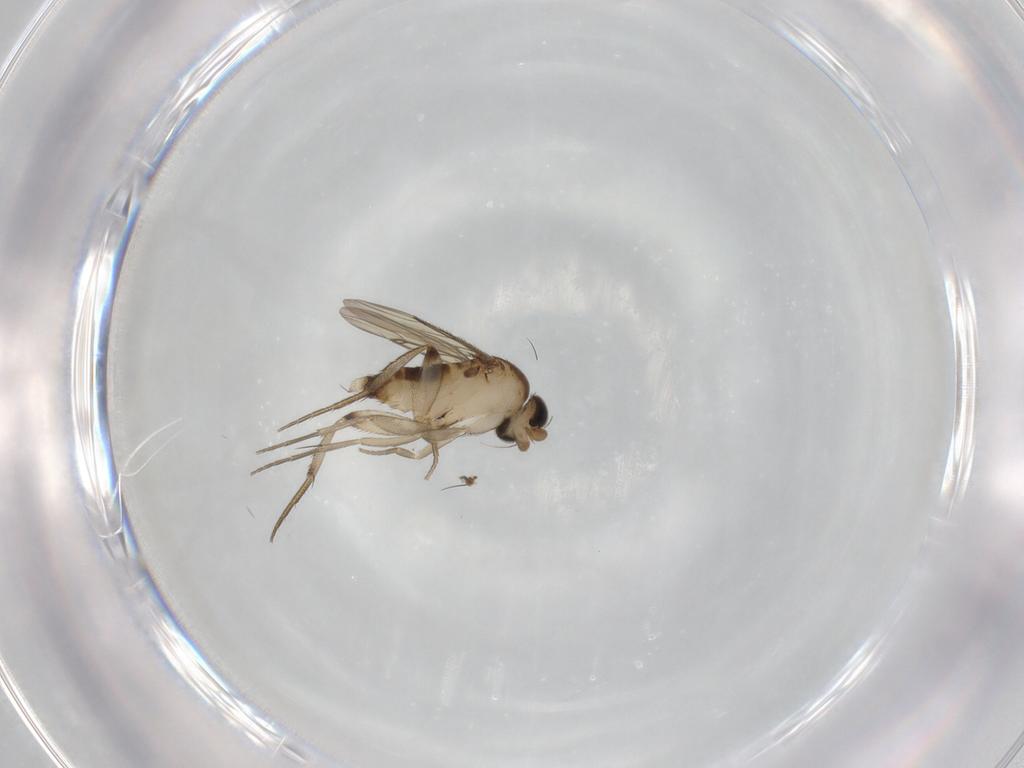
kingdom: Animalia
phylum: Arthropoda
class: Insecta
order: Diptera
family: Phoridae
